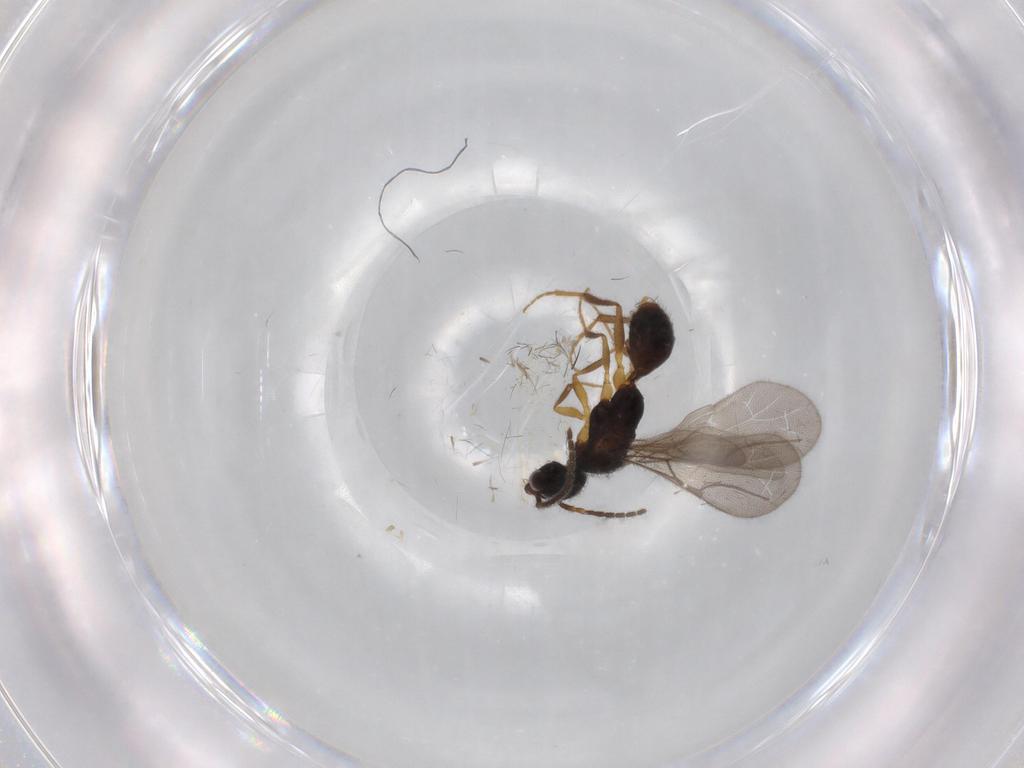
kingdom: Animalia
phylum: Arthropoda
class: Insecta
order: Hymenoptera
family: Bethylidae
